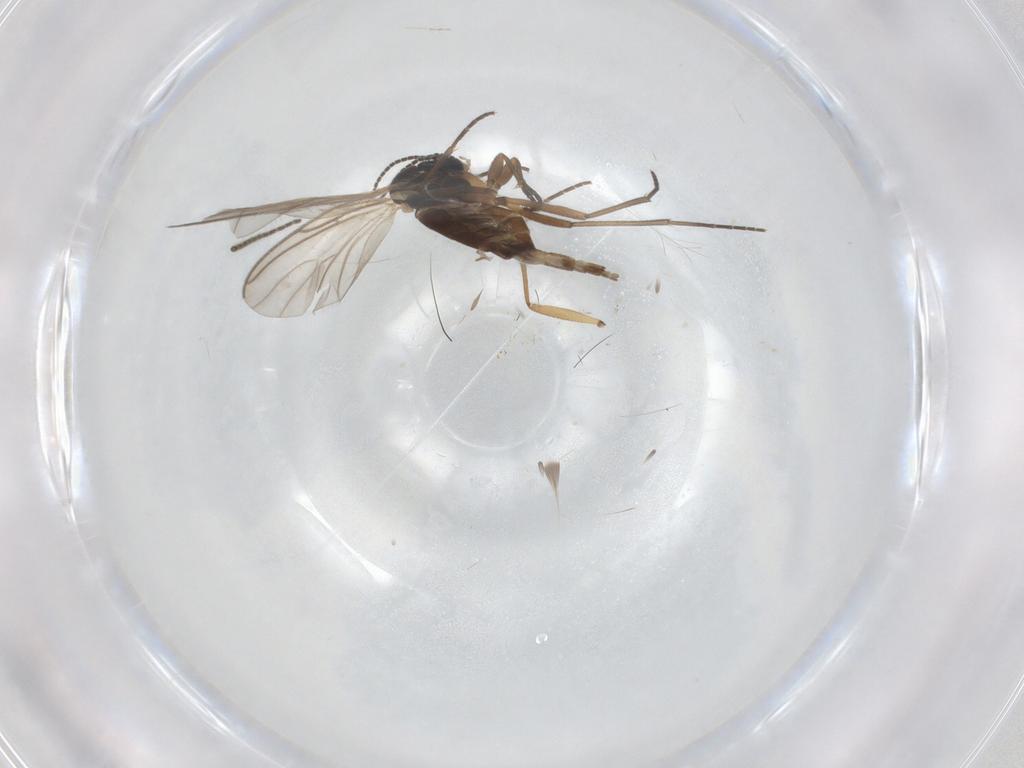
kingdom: Animalia
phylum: Arthropoda
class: Insecta
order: Diptera
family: Sciaridae
